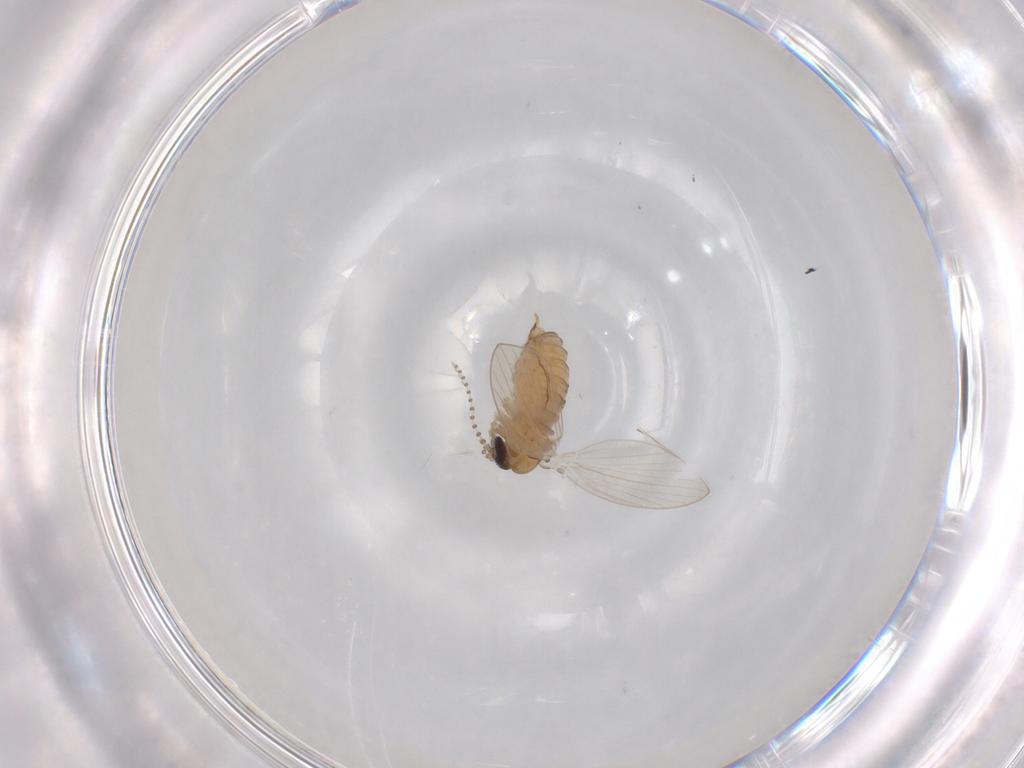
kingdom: Animalia
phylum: Arthropoda
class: Insecta
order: Diptera
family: Psychodidae
